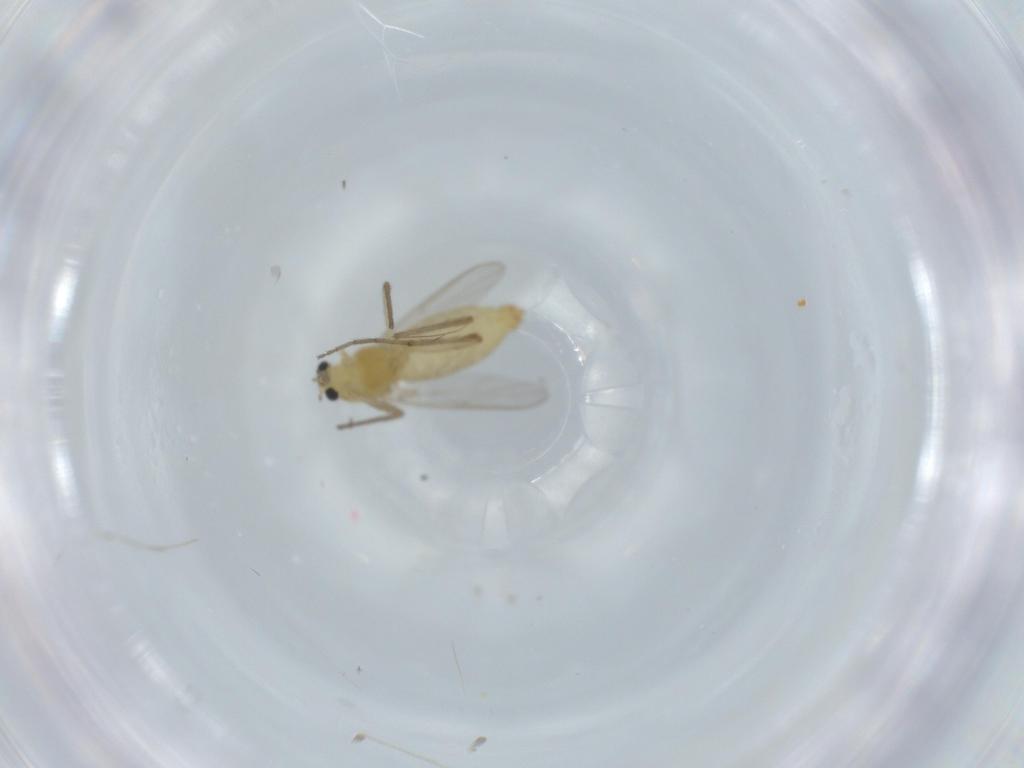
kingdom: Animalia
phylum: Arthropoda
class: Insecta
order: Diptera
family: Chironomidae
